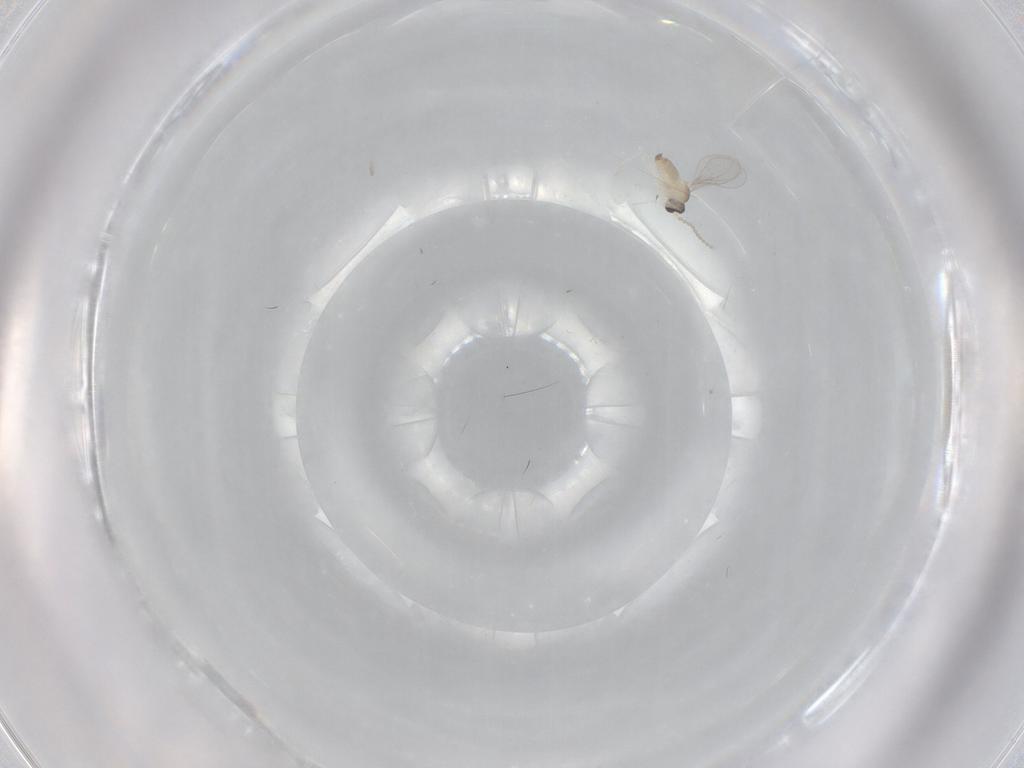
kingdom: Animalia
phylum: Arthropoda
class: Insecta
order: Diptera
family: Cecidomyiidae
